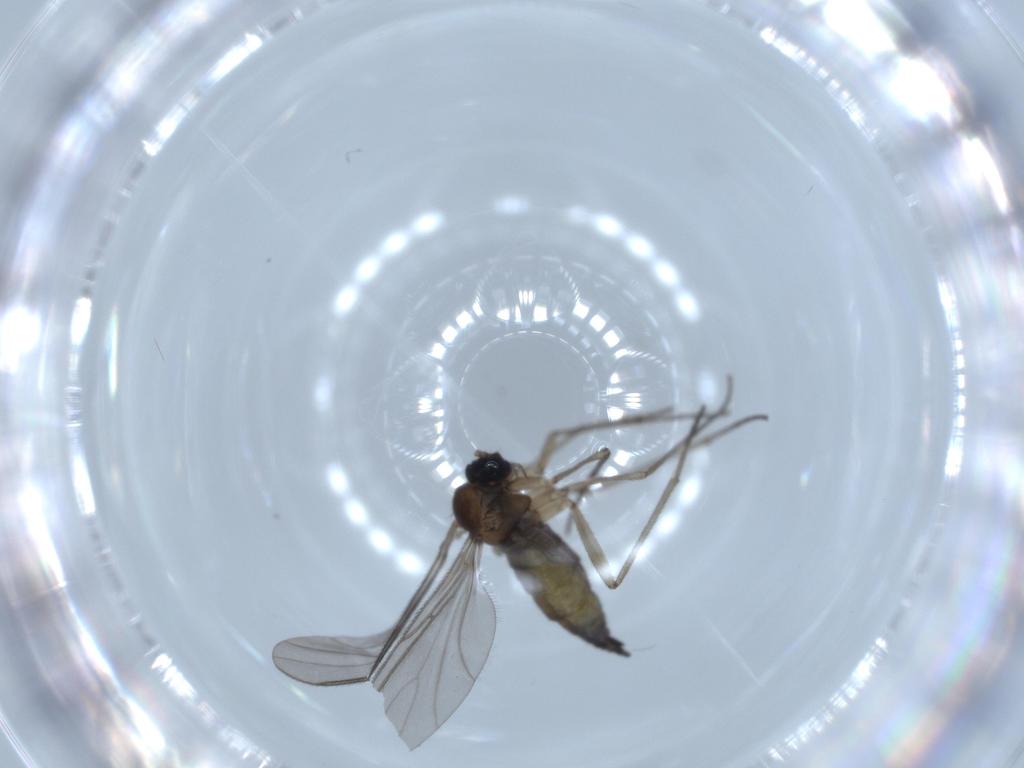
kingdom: Animalia
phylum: Arthropoda
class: Insecta
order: Diptera
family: Sciaridae
